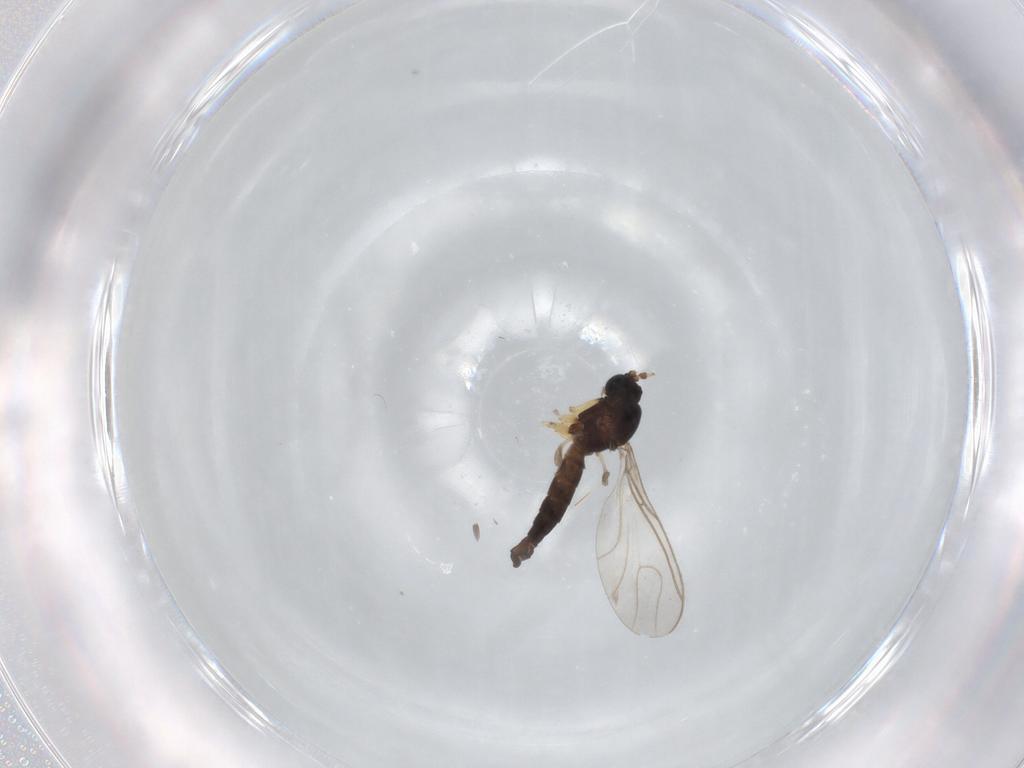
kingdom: Animalia
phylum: Arthropoda
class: Insecta
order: Diptera
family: Sciaridae
